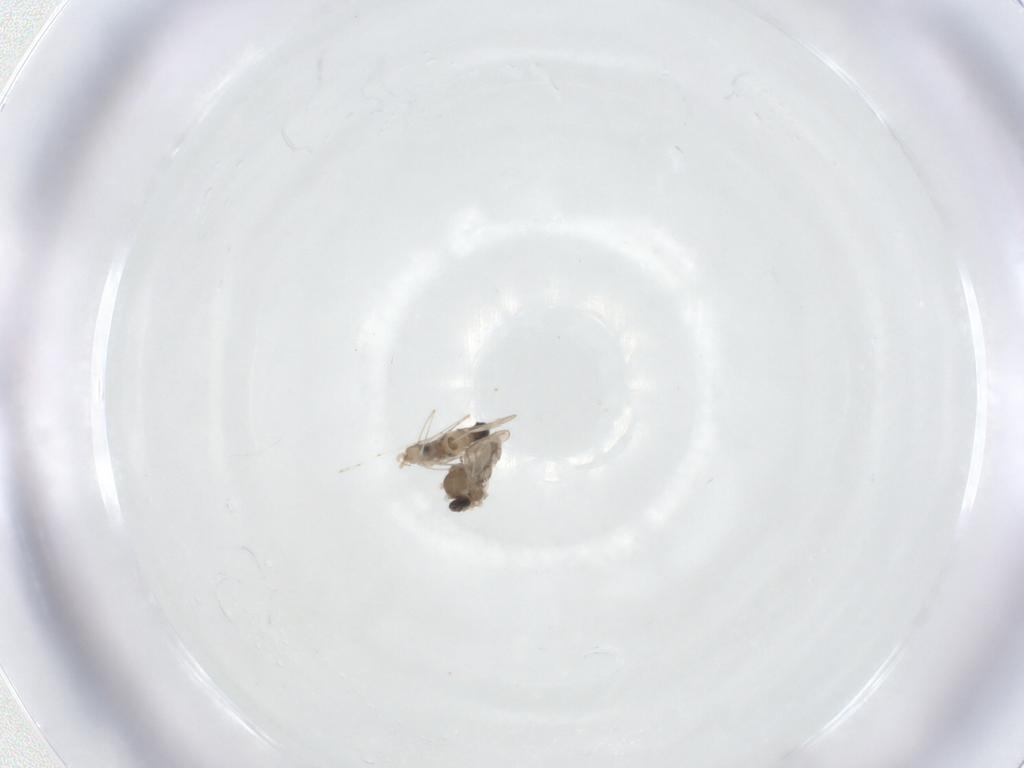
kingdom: Animalia
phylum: Arthropoda
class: Insecta
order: Diptera
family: Cecidomyiidae
